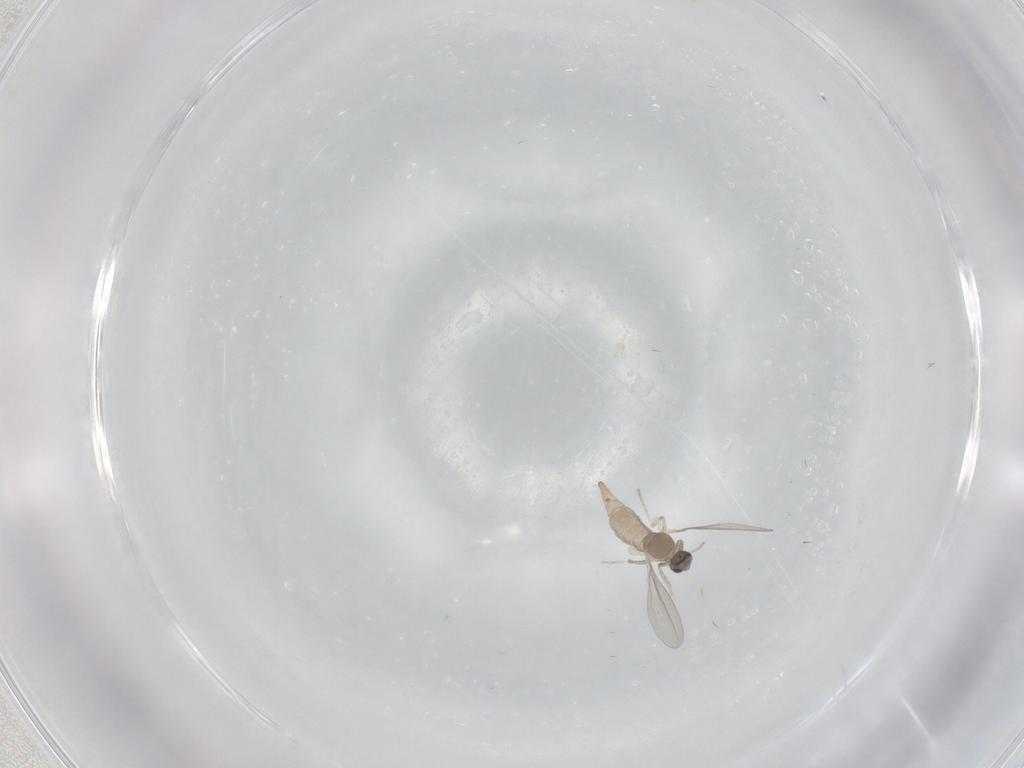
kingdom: Animalia
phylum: Arthropoda
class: Insecta
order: Diptera
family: Cecidomyiidae
